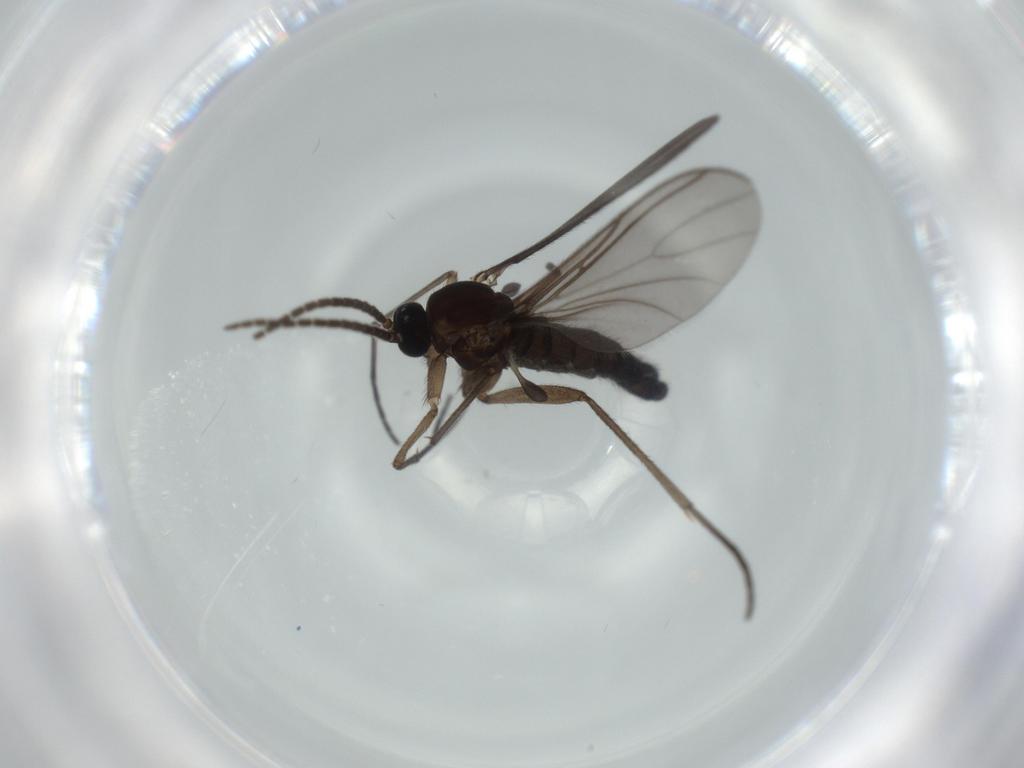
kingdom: Animalia
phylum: Arthropoda
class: Insecta
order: Diptera
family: Sciaridae
